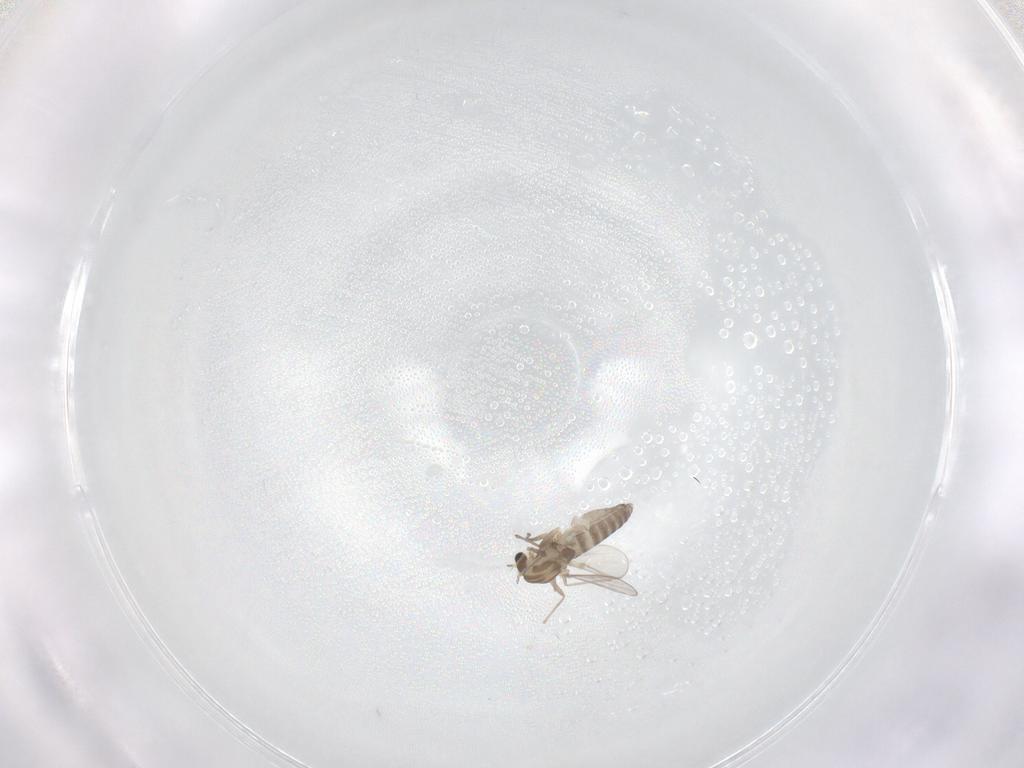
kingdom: Animalia
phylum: Arthropoda
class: Insecta
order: Diptera
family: Chironomidae
